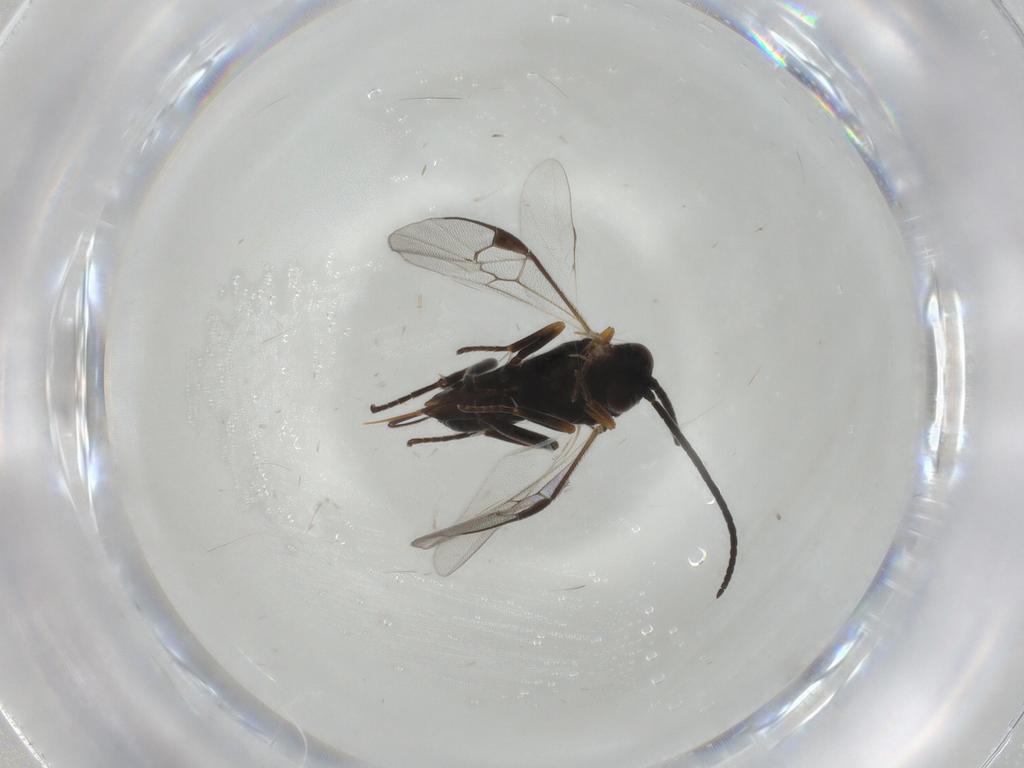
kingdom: Animalia
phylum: Arthropoda
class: Insecta
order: Hymenoptera
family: Braconidae
